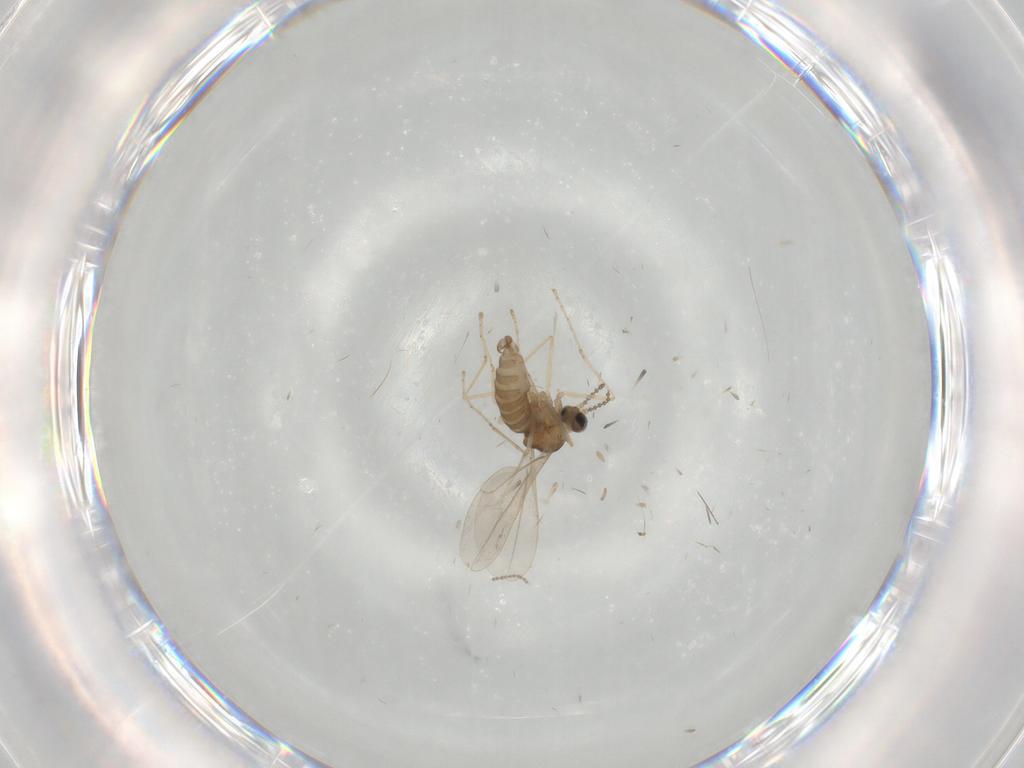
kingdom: Animalia
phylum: Arthropoda
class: Insecta
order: Diptera
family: Cecidomyiidae
